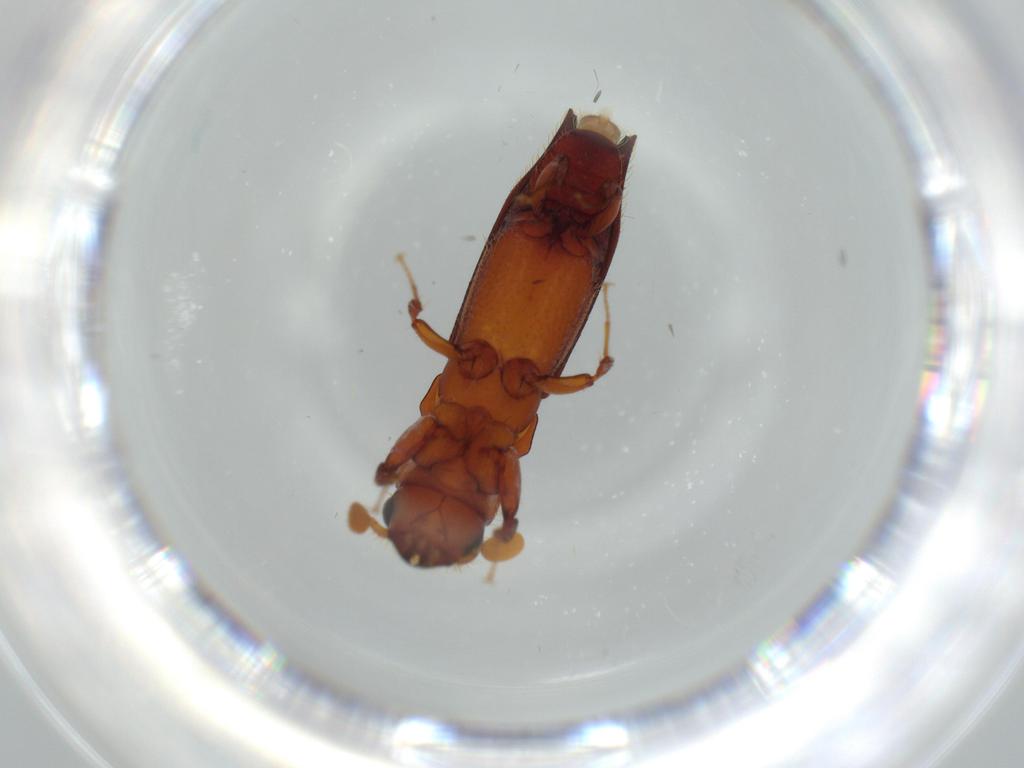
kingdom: Animalia
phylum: Arthropoda
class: Insecta
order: Coleoptera
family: Curculionidae
